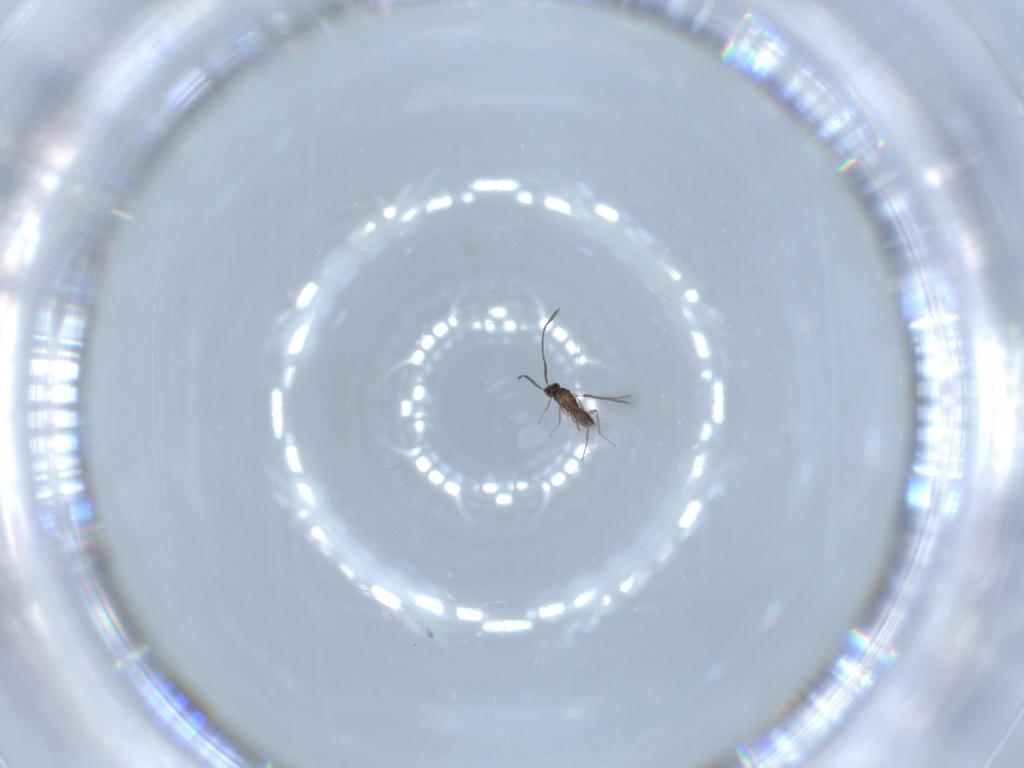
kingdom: Animalia
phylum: Arthropoda
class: Insecta
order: Hymenoptera
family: Mymaridae
